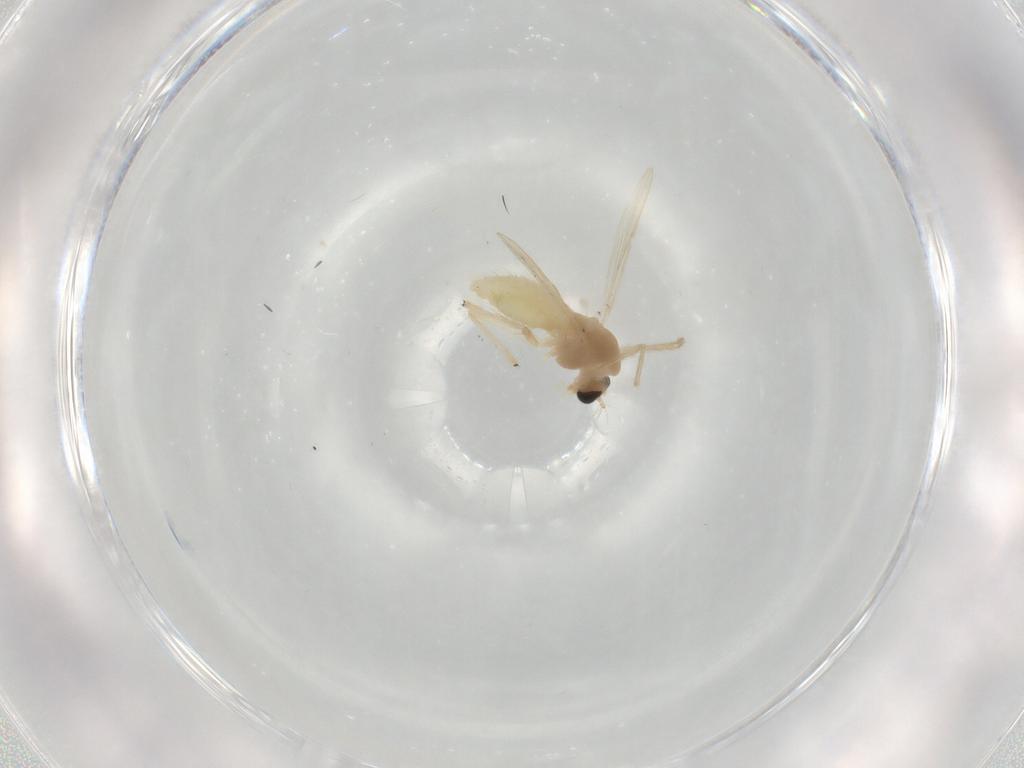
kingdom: Animalia
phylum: Arthropoda
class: Insecta
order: Diptera
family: Chironomidae
